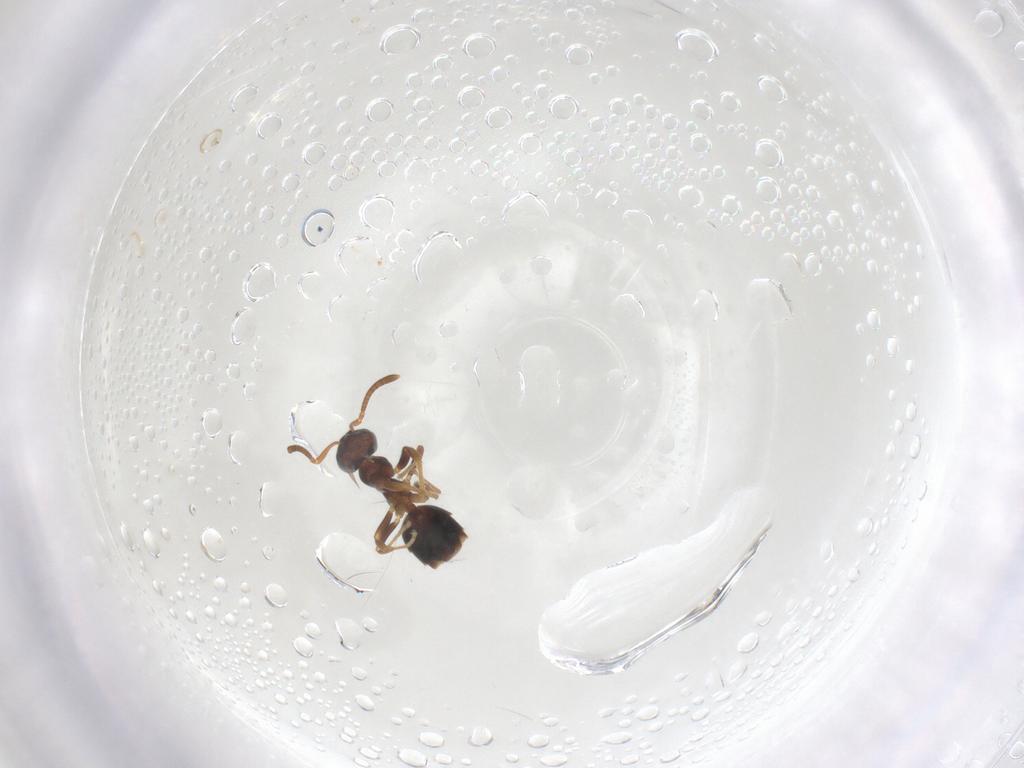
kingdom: Animalia
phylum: Arthropoda
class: Insecta
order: Hymenoptera
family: Formicidae
